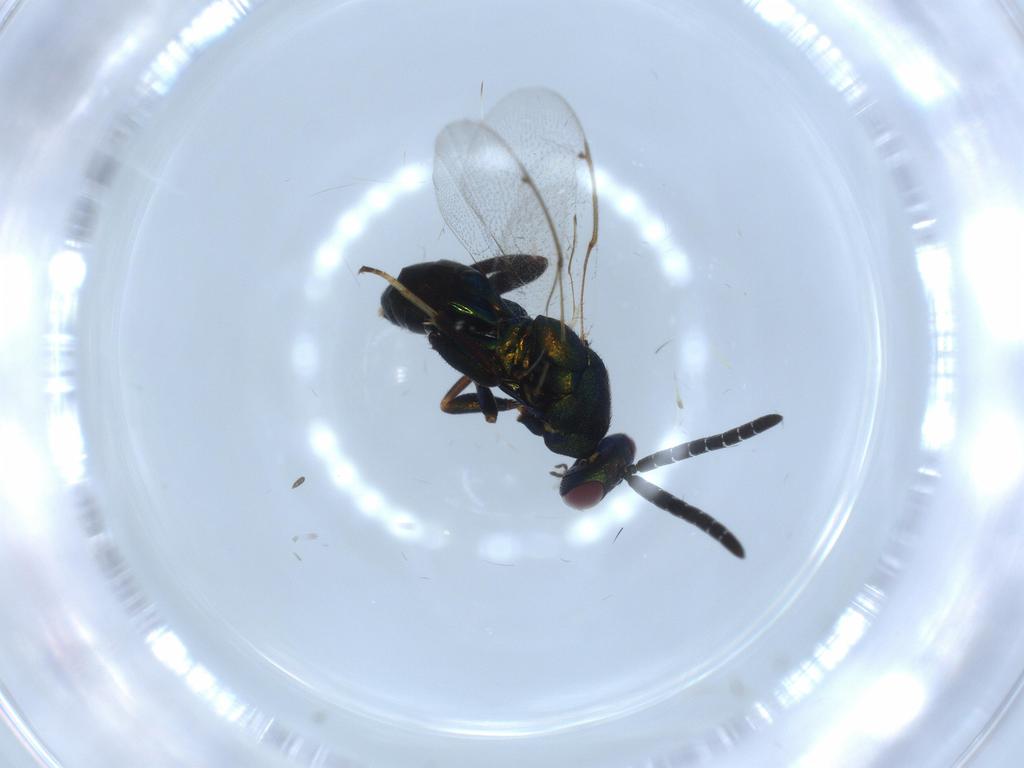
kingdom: Animalia
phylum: Arthropoda
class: Insecta
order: Hymenoptera
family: Torymidae
